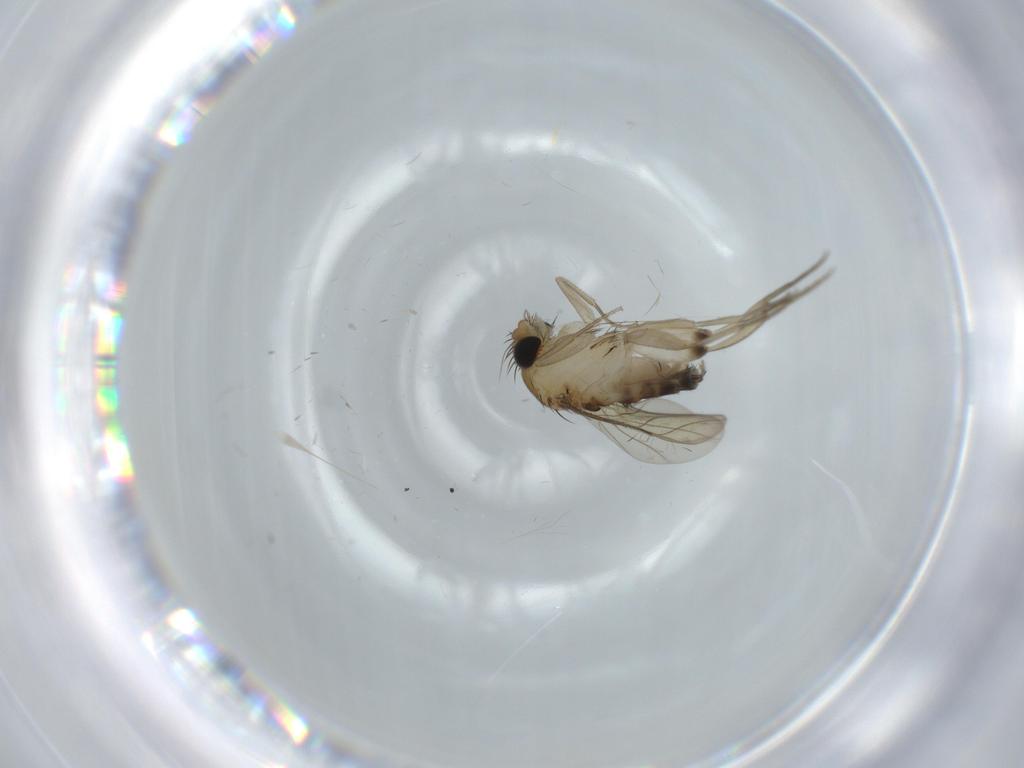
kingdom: Animalia
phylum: Arthropoda
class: Insecta
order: Diptera
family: Phoridae
